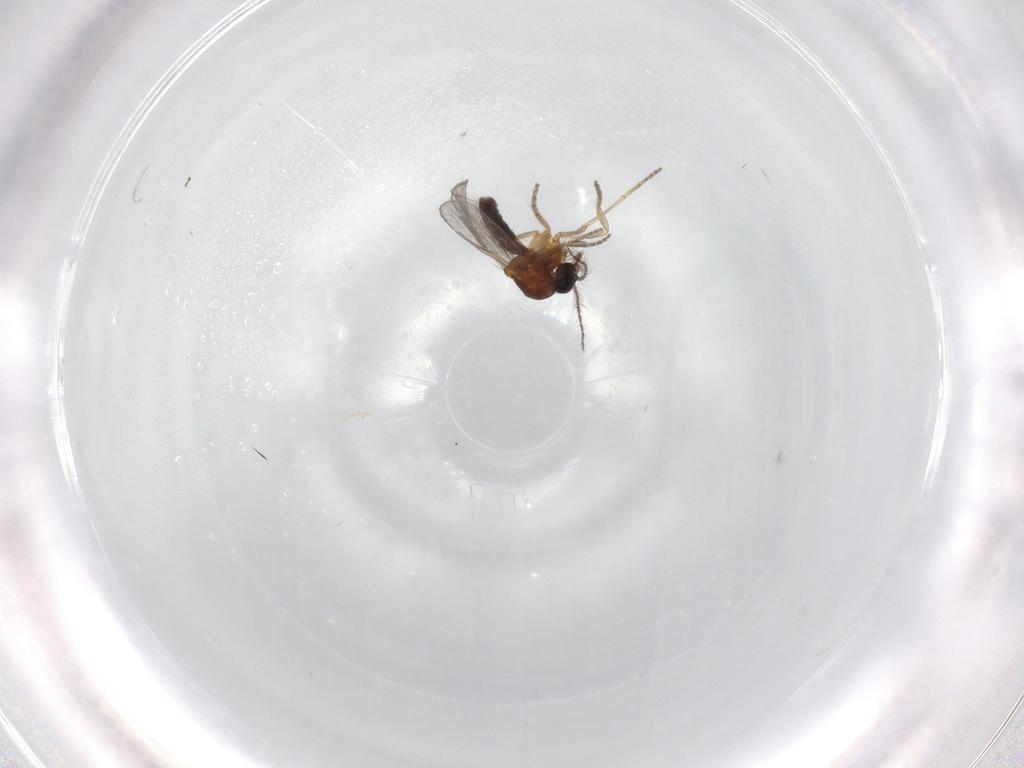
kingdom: Animalia
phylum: Arthropoda
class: Insecta
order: Diptera
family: Ceratopogonidae
